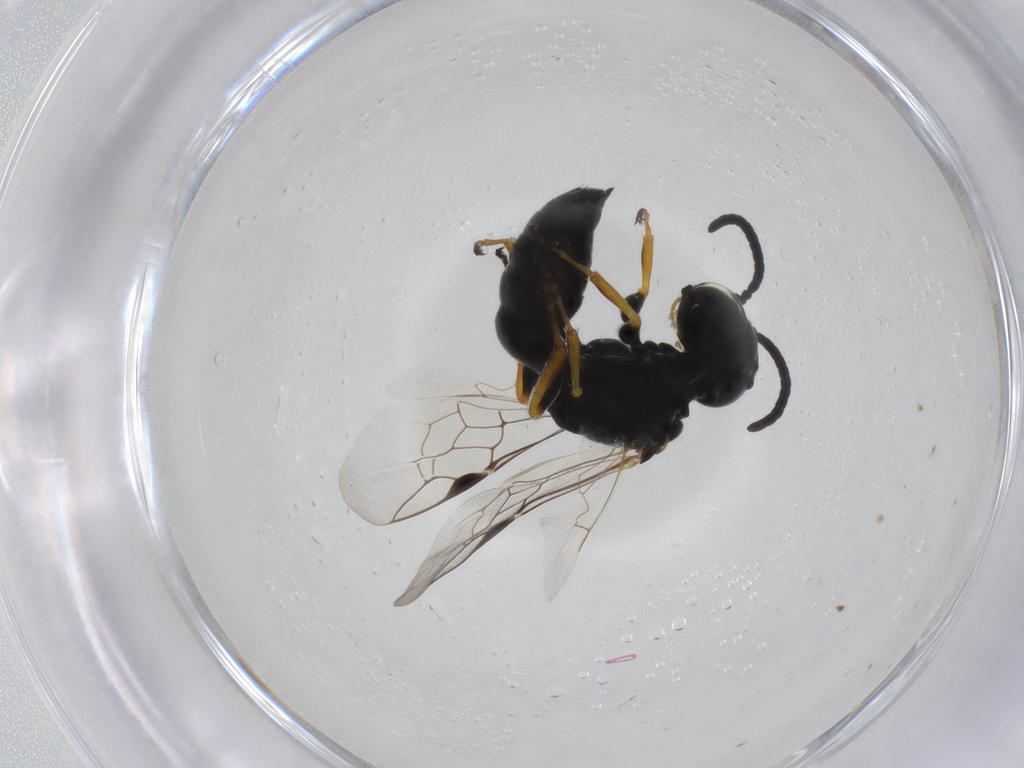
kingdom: Animalia
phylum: Arthropoda
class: Insecta
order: Hymenoptera
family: Pemphredonidae
